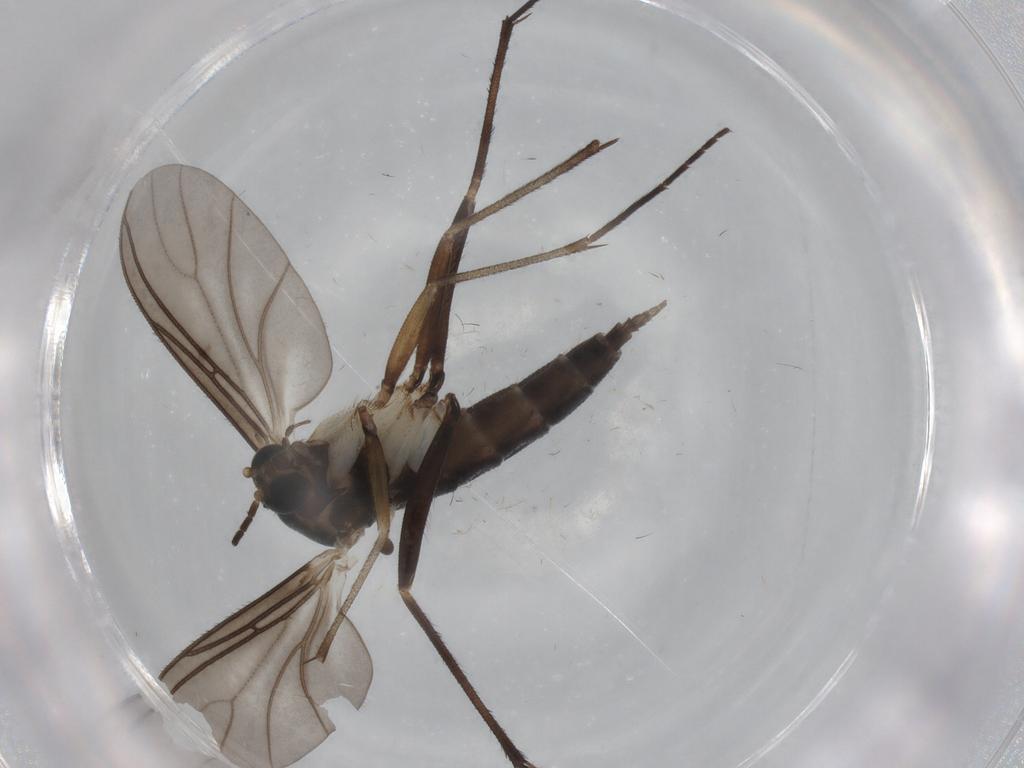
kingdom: Animalia
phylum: Arthropoda
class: Insecta
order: Diptera
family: Sciaridae
